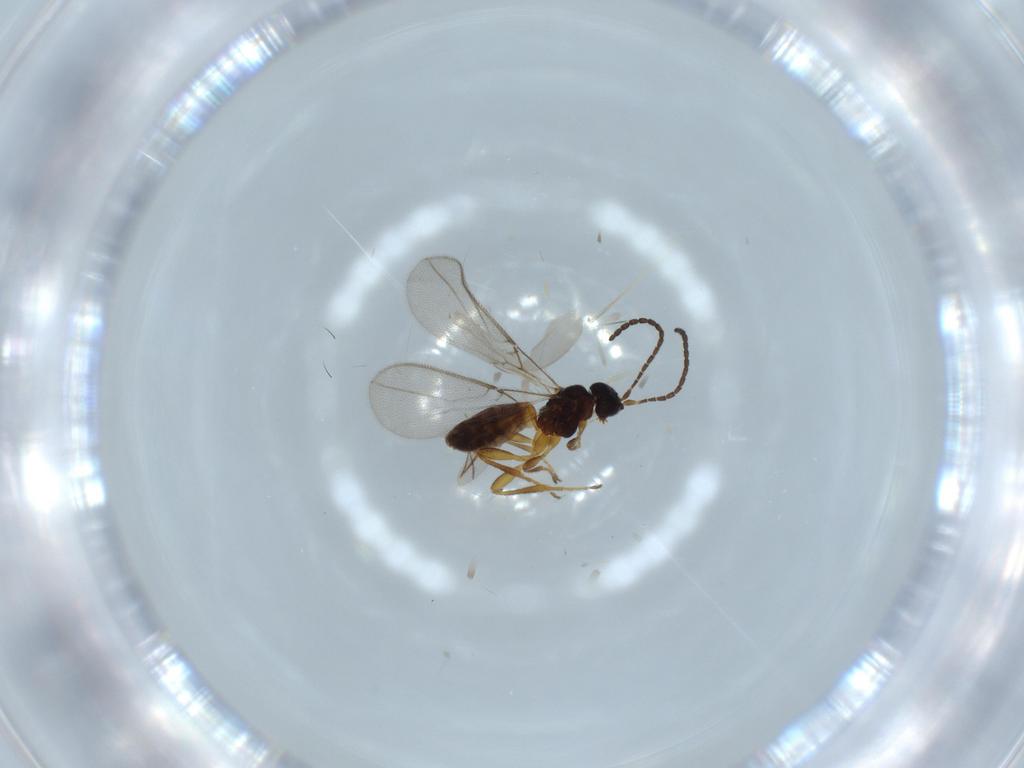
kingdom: Animalia
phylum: Arthropoda
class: Insecta
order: Hymenoptera
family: Braconidae
